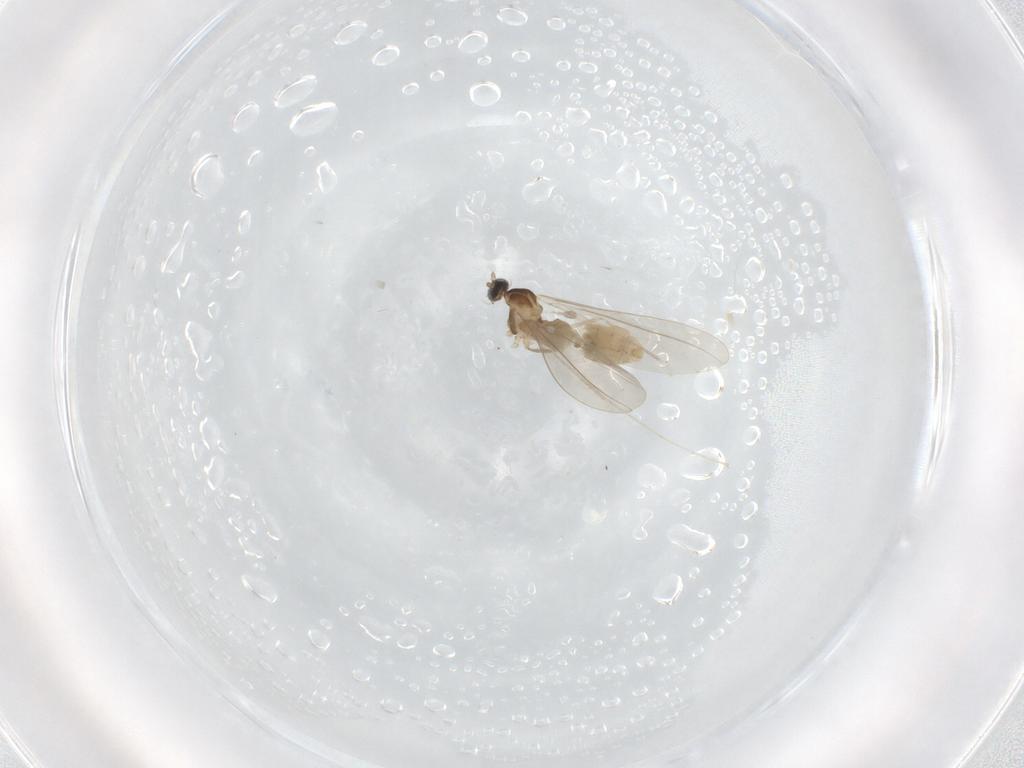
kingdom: Animalia
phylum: Arthropoda
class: Insecta
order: Diptera
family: Cecidomyiidae
